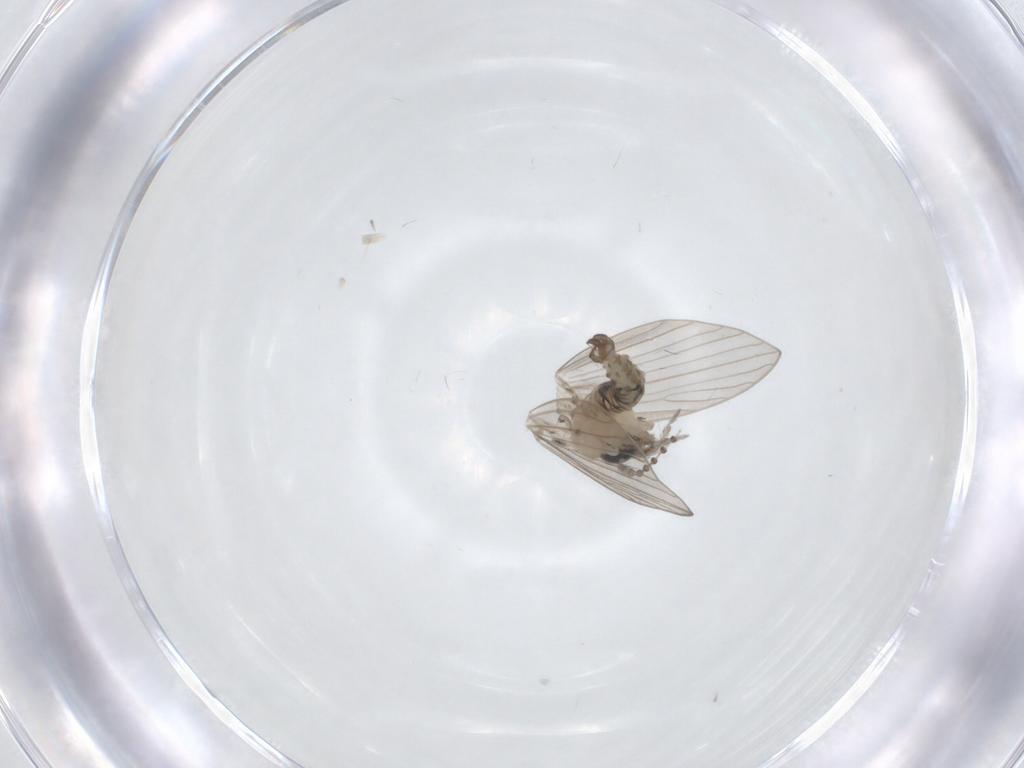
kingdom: Animalia
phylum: Arthropoda
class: Insecta
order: Diptera
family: Psychodidae
